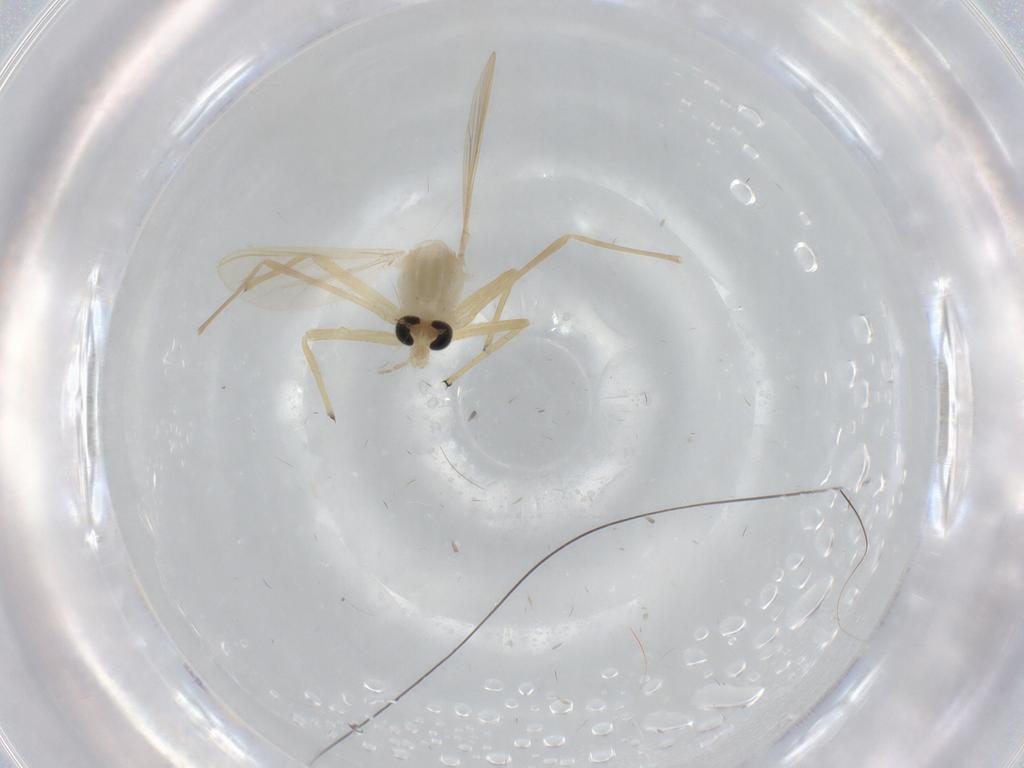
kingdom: Animalia
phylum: Arthropoda
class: Insecta
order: Diptera
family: Chironomidae
